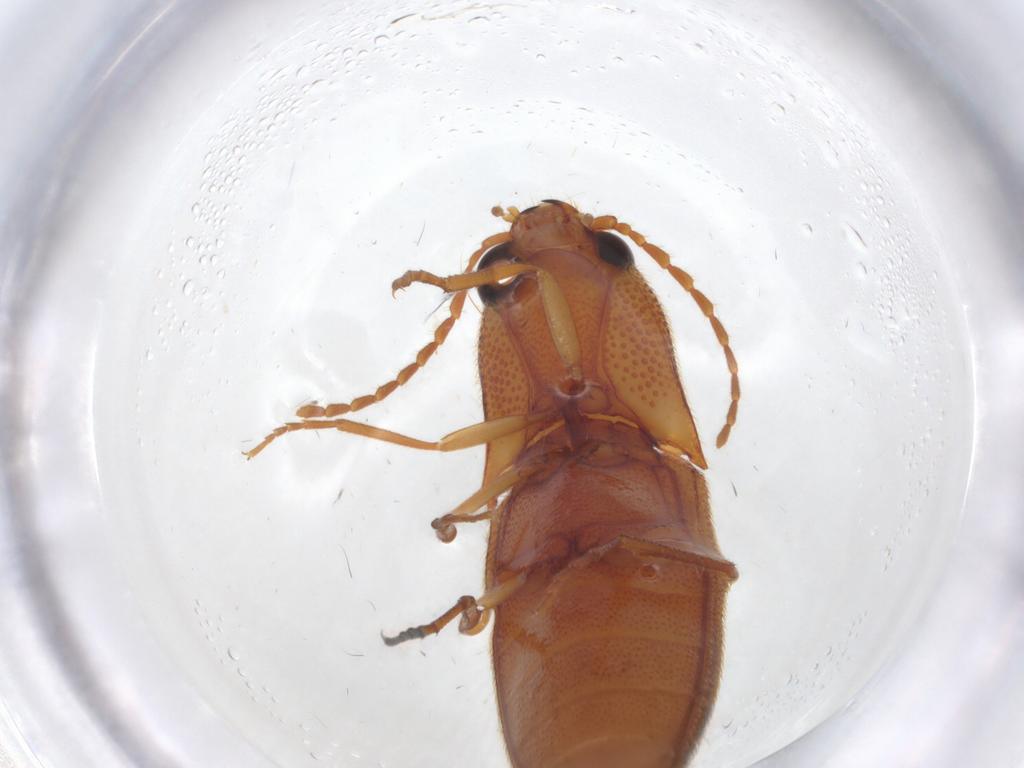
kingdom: Animalia
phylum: Arthropoda
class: Insecta
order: Coleoptera
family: Elateridae
